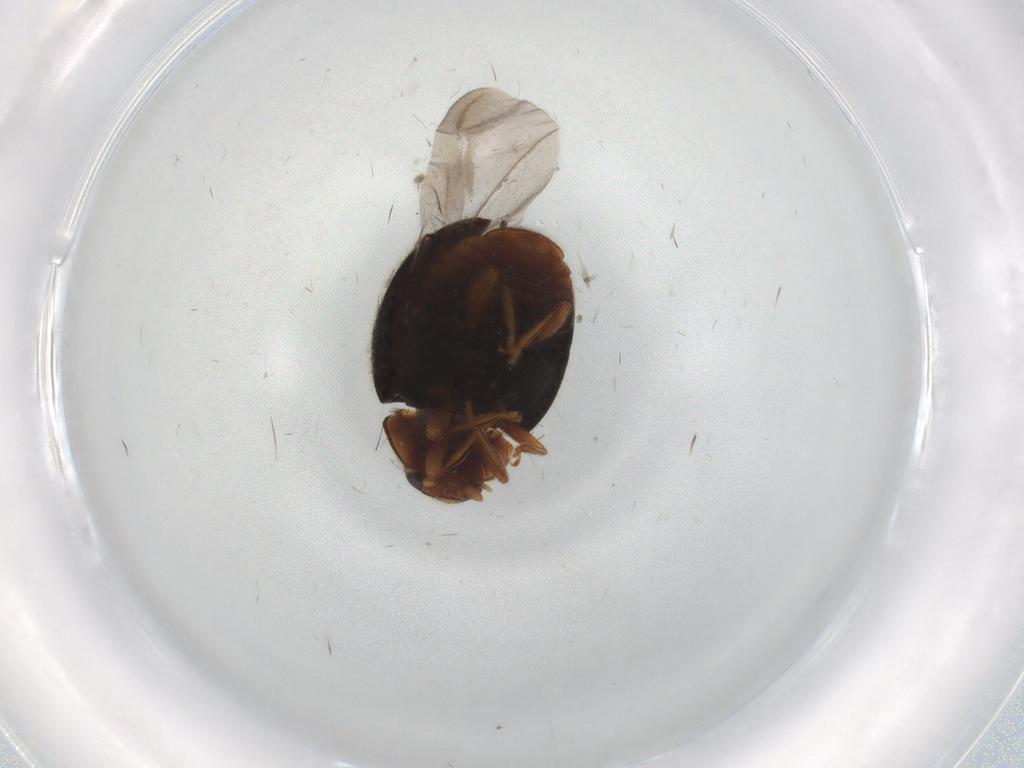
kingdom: Animalia
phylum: Arthropoda
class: Insecta
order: Coleoptera
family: Coccinellidae
